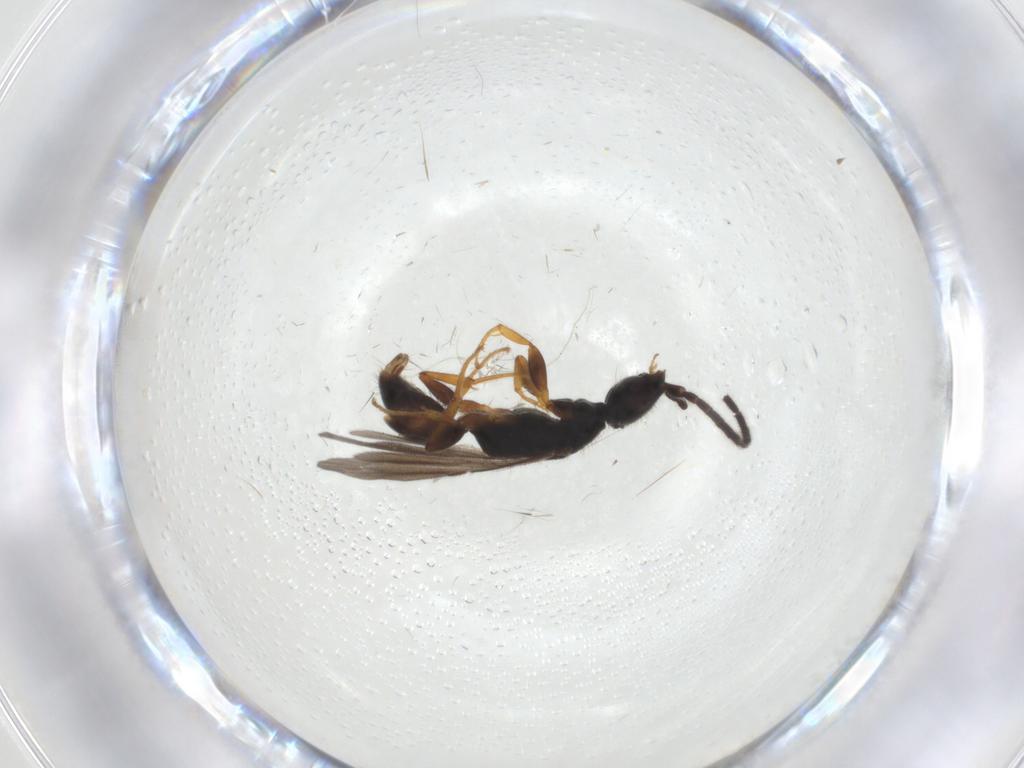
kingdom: Animalia
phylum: Arthropoda
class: Insecta
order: Hymenoptera
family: Bethylidae
